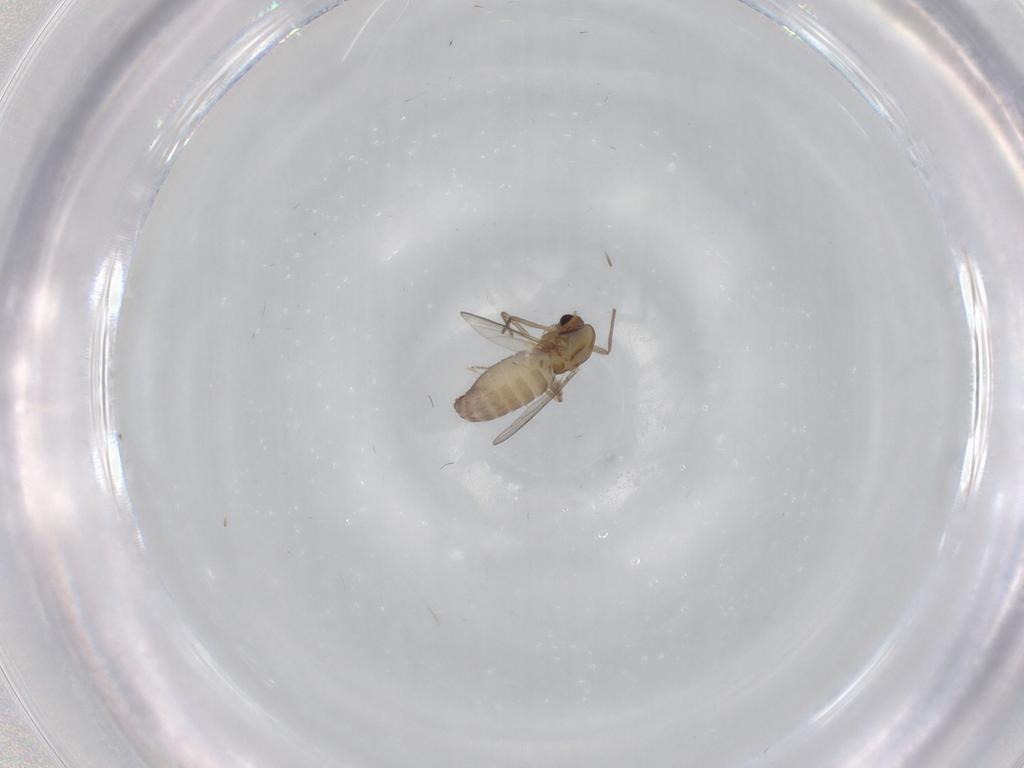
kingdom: Animalia
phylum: Arthropoda
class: Insecta
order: Diptera
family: Chironomidae
